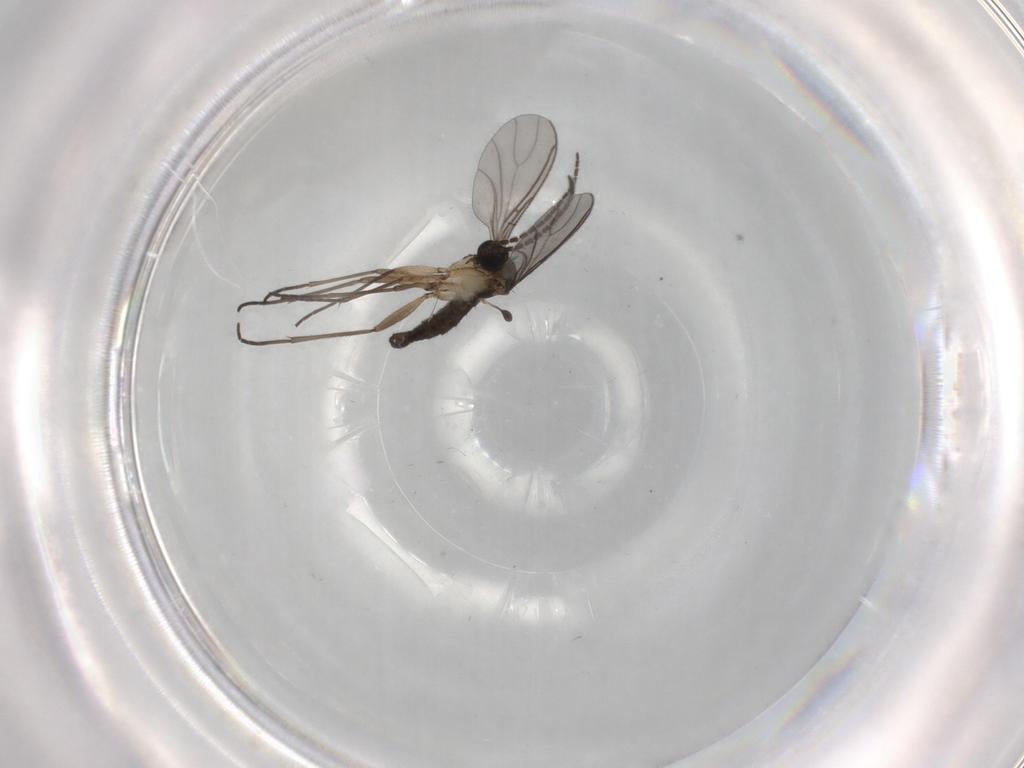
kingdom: Animalia
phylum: Arthropoda
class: Insecta
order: Diptera
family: Sciaridae
